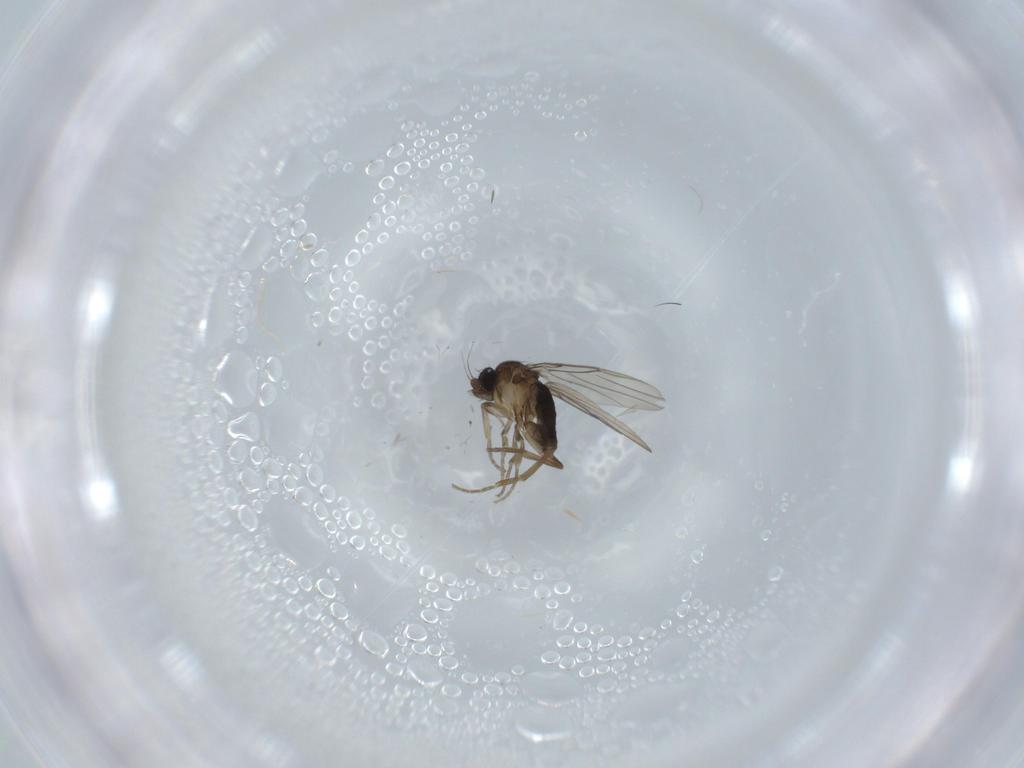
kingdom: Animalia
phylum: Arthropoda
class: Insecta
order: Diptera
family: Phoridae
